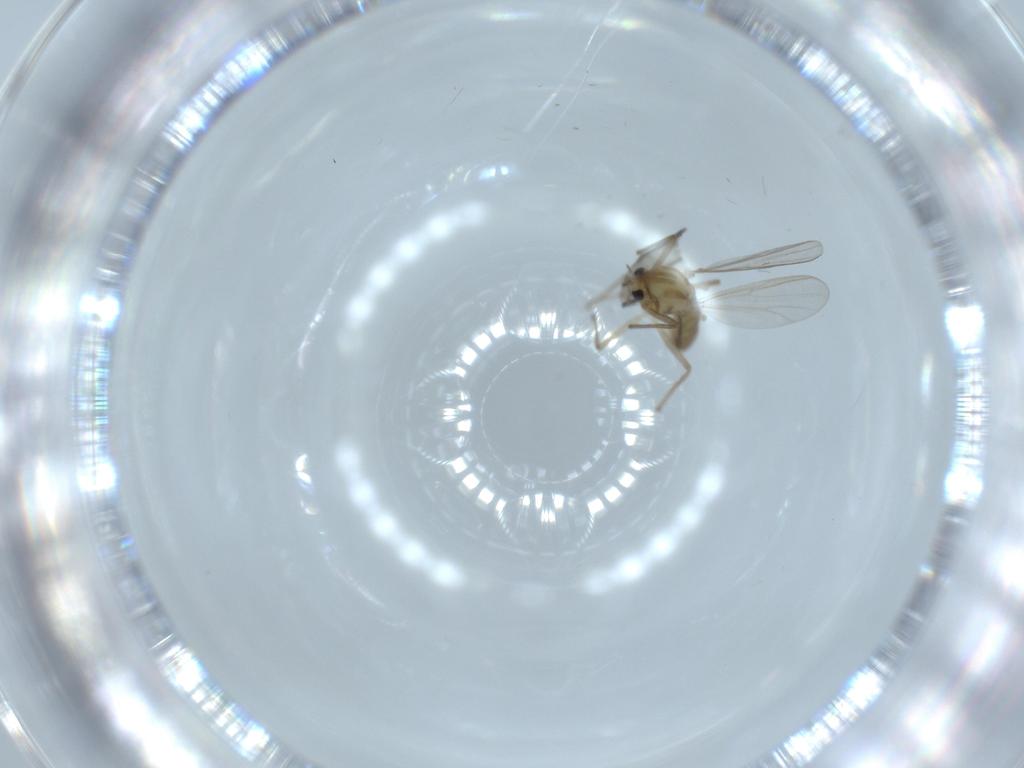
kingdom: Animalia
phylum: Arthropoda
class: Insecta
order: Diptera
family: Chironomidae
